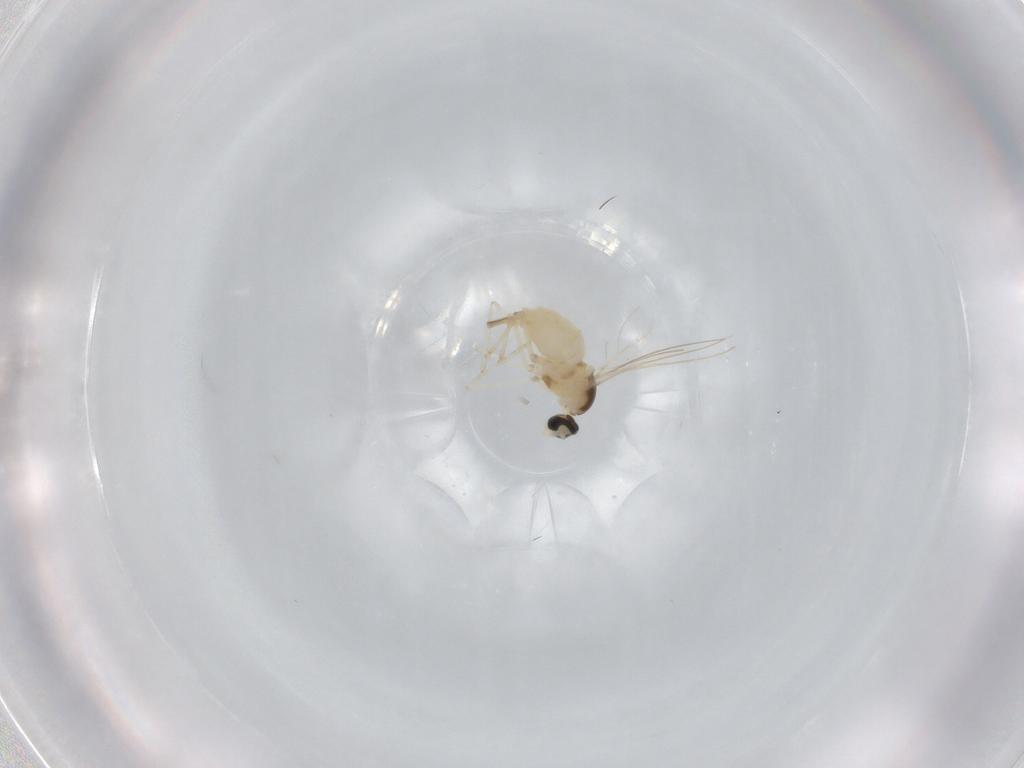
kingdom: Animalia
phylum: Arthropoda
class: Insecta
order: Diptera
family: Cecidomyiidae
